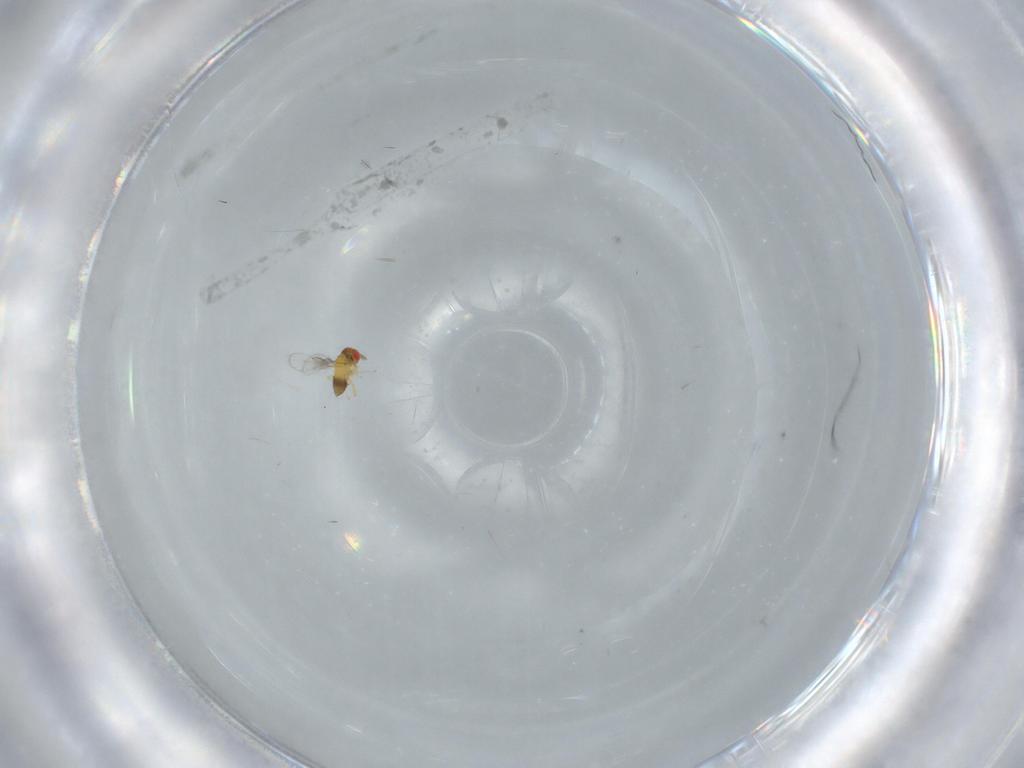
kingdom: Animalia
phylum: Arthropoda
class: Insecta
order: Hymenoptera
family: Trichogrammatidae
